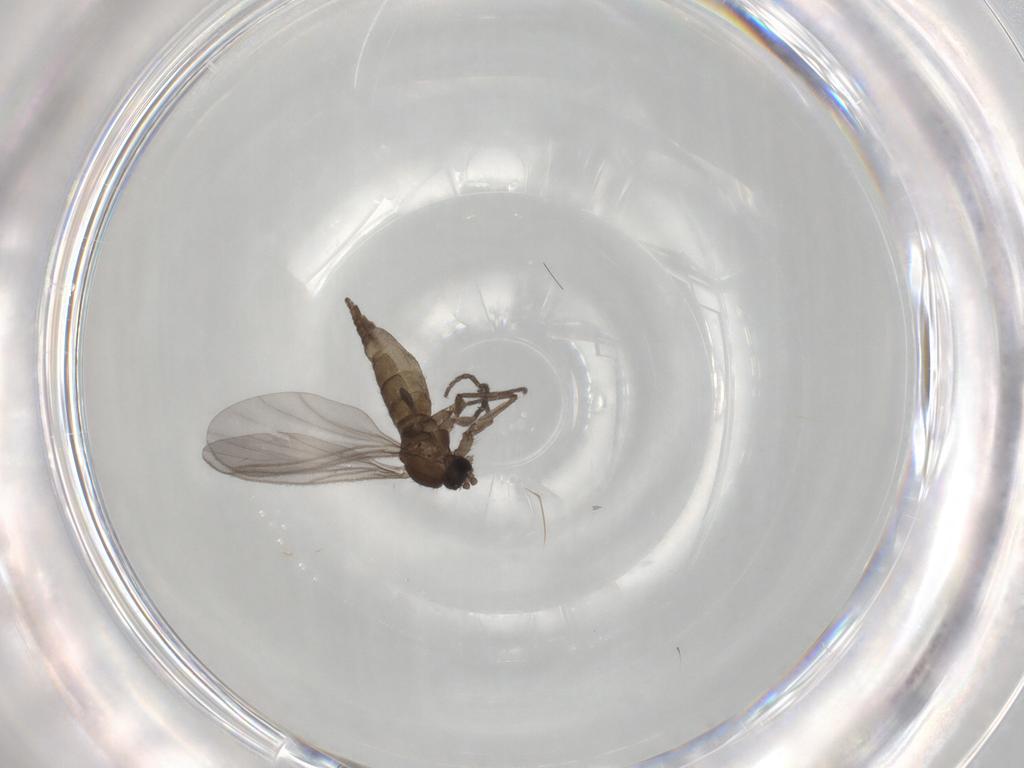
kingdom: Animalia
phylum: Arthropoda
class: Insecta
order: Diptera
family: Sciaridae
